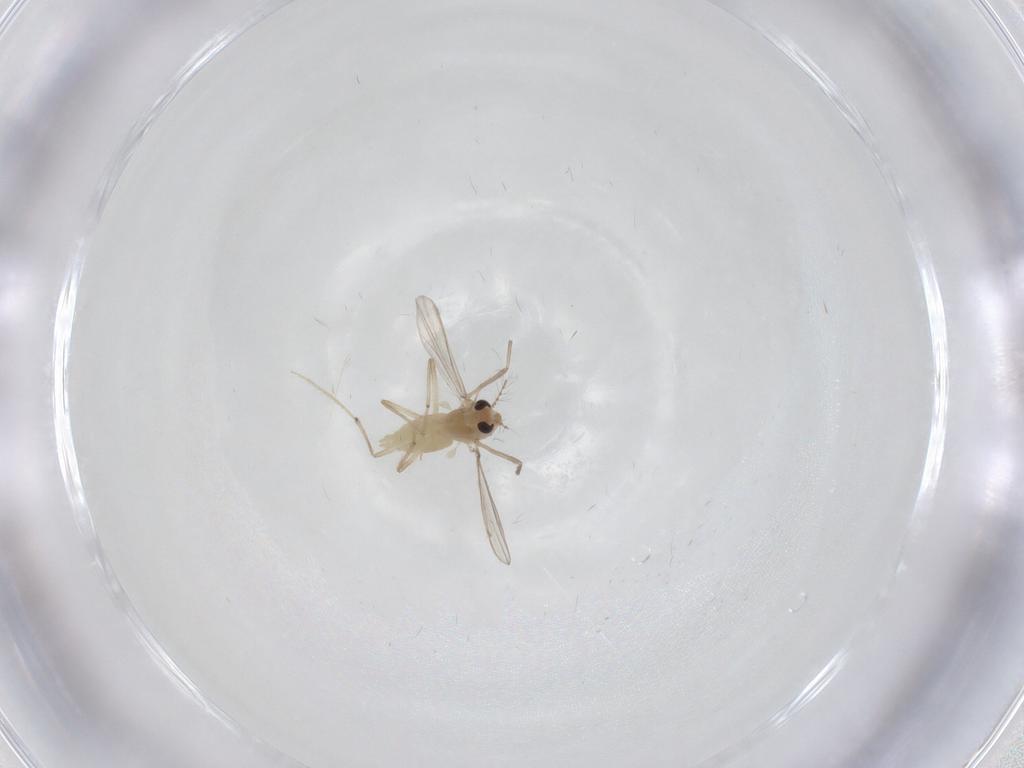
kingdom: Animalia
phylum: Arthropoda
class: Insecta
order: Diptera
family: Chironomidae
